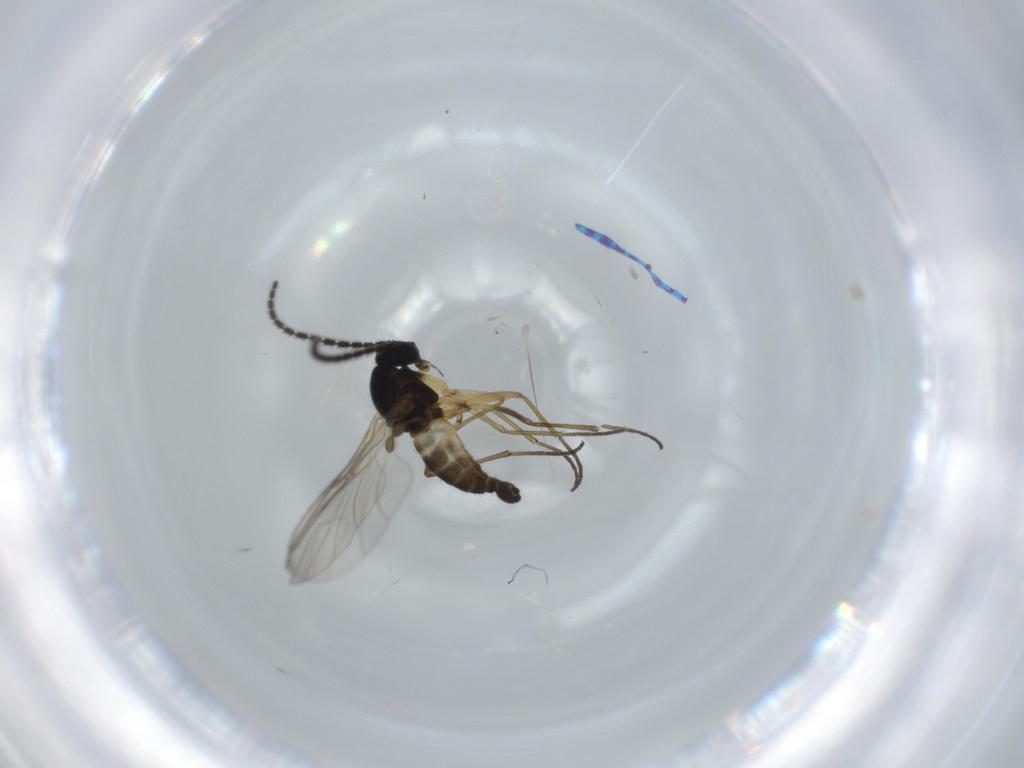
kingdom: Animalia
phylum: Arthropoda
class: Insecta
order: Diptera
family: Sciaridae
